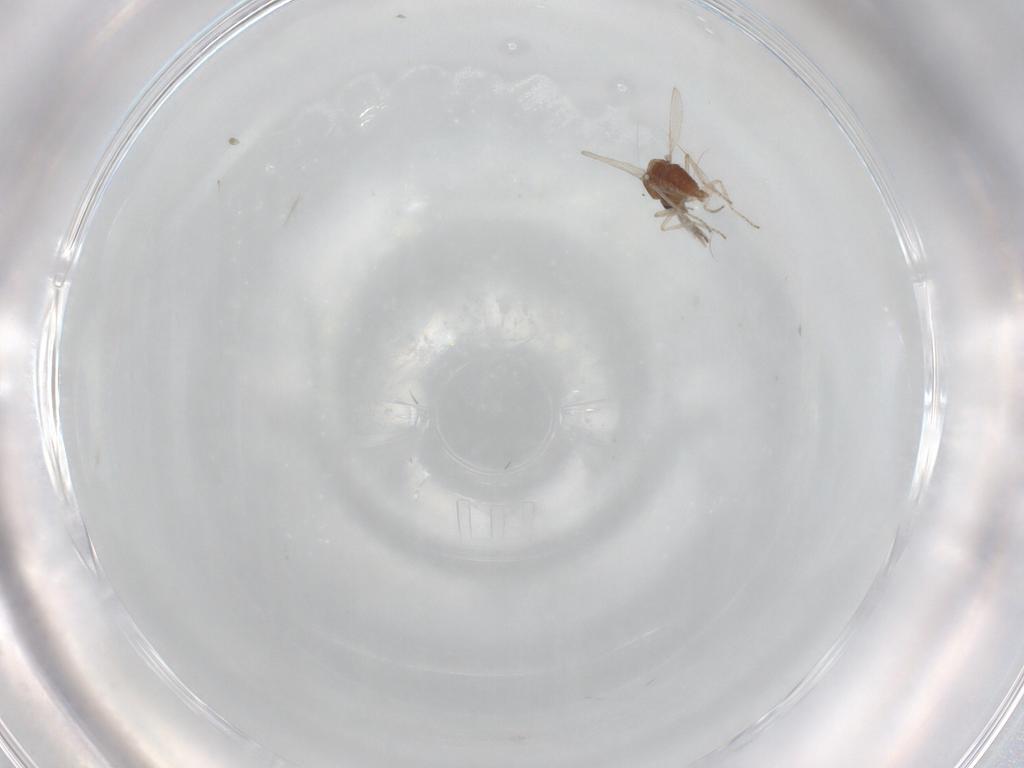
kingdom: Animalia
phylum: Arthropoda
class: Insecta
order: Diptera
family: Ceratopogonidae
